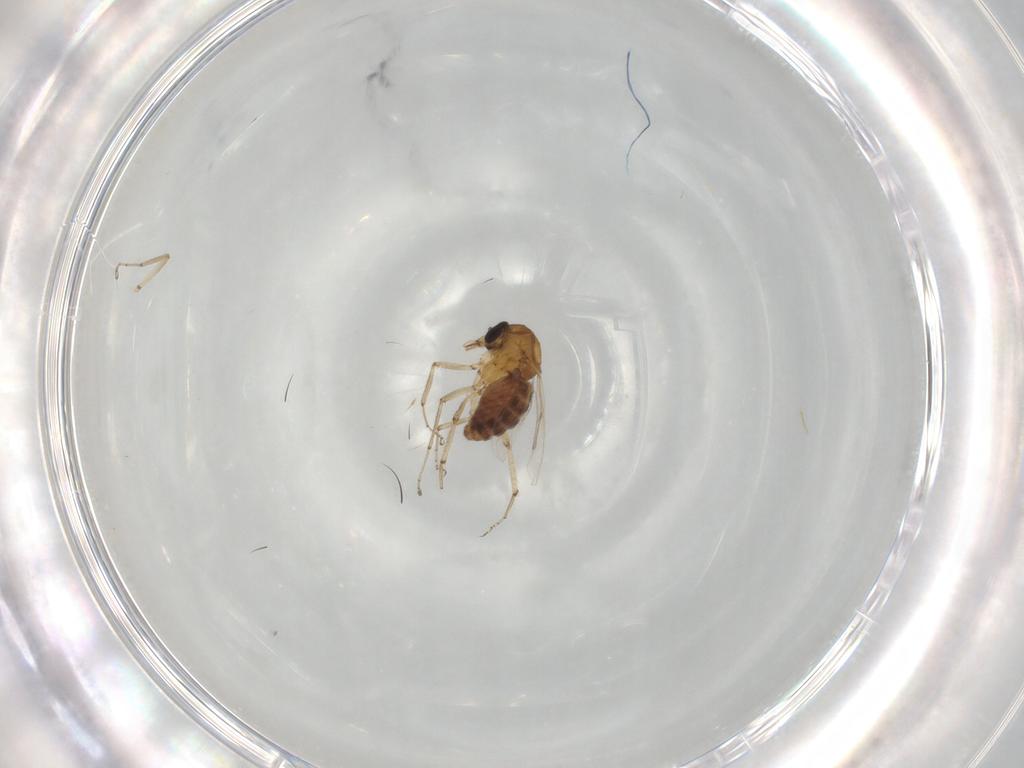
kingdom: Animalia
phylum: Arthropoda
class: Insecta
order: Diptera
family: Ceratopogonidae
